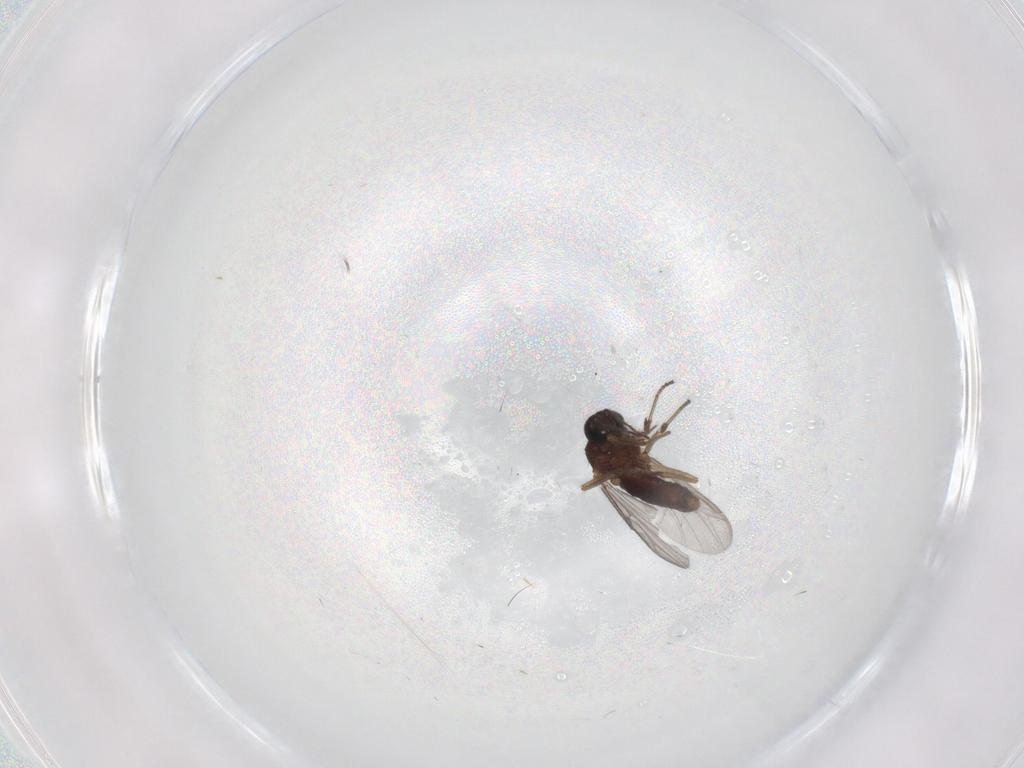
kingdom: Animalia
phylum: Arthropoda
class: Insecta
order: Diptera
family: Ceratopogonidae
